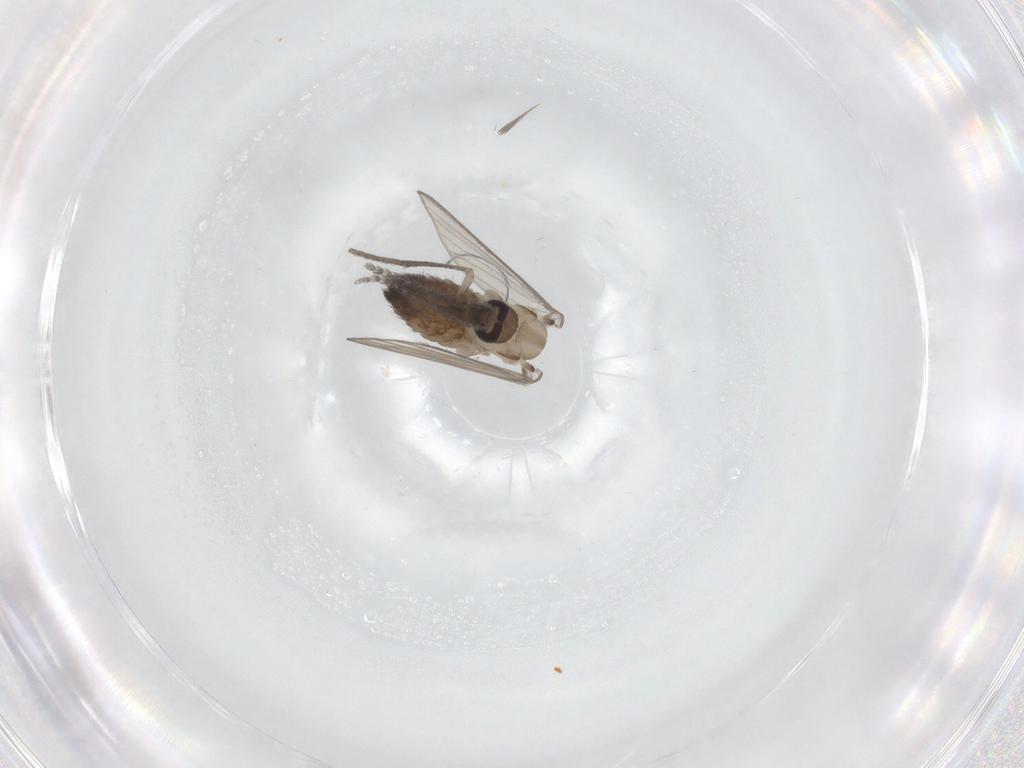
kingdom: Animalia
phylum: Arthropoda
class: Insecta
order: Diptera
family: Psychodidae
